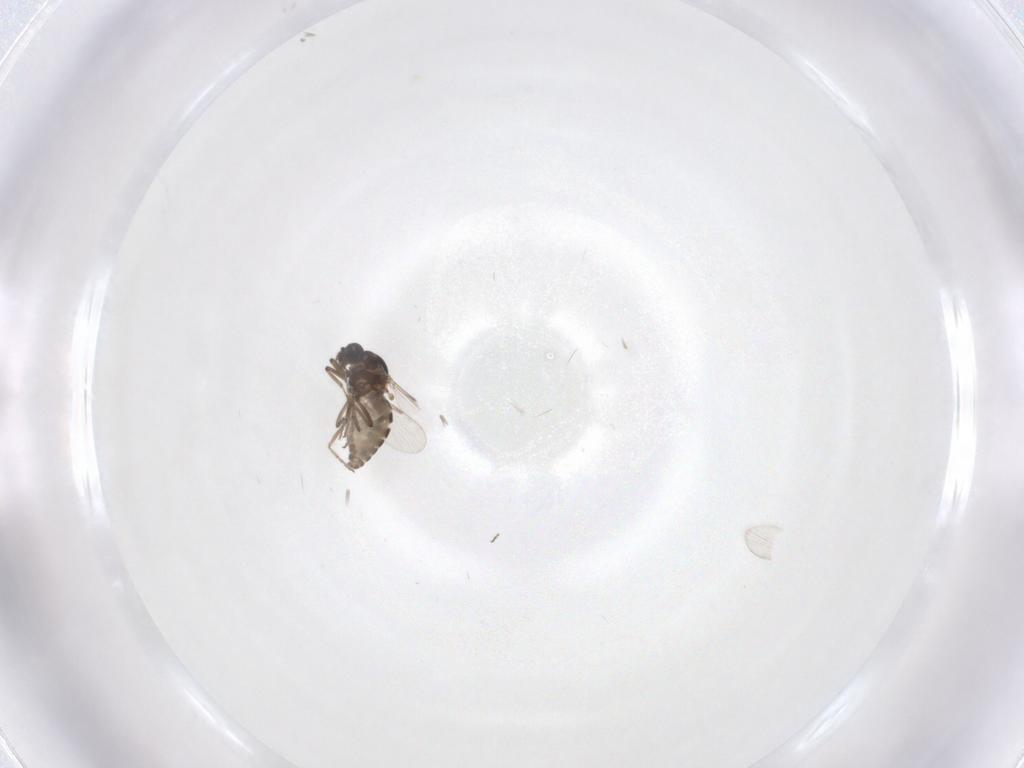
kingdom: Animalia
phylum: Arthropoda
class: Insecta
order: Diptera
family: Ceratopogonidae
